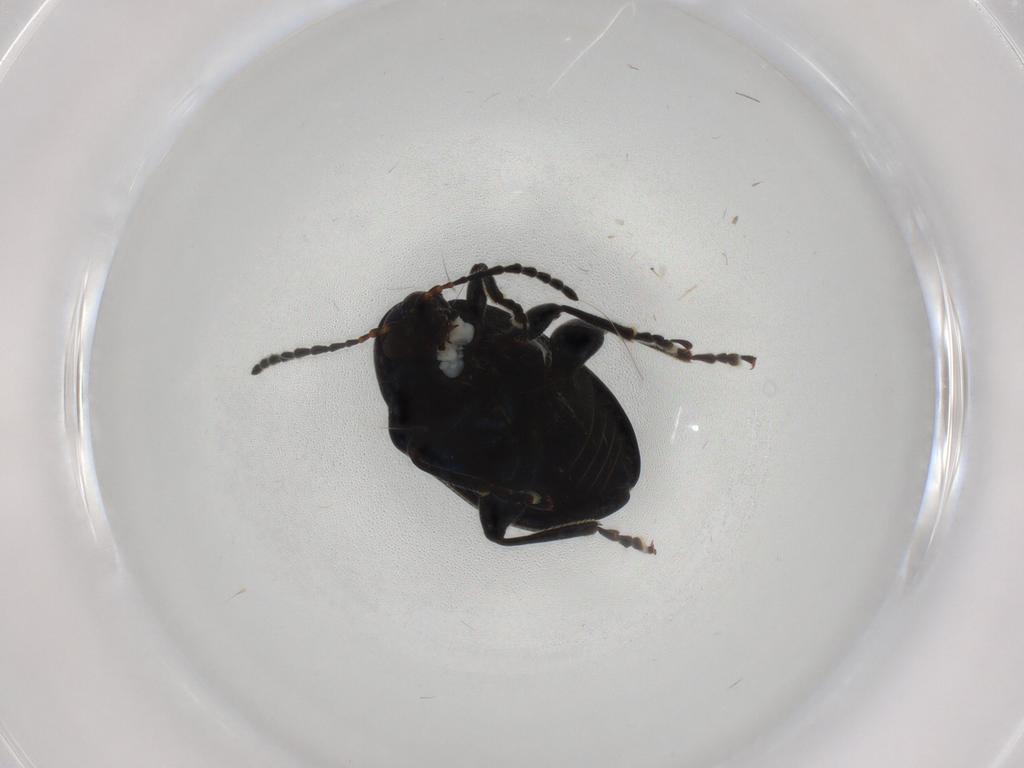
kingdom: Animalia
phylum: Arthropoda
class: Insecta
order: Coleoptera
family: Chrysomelidae
